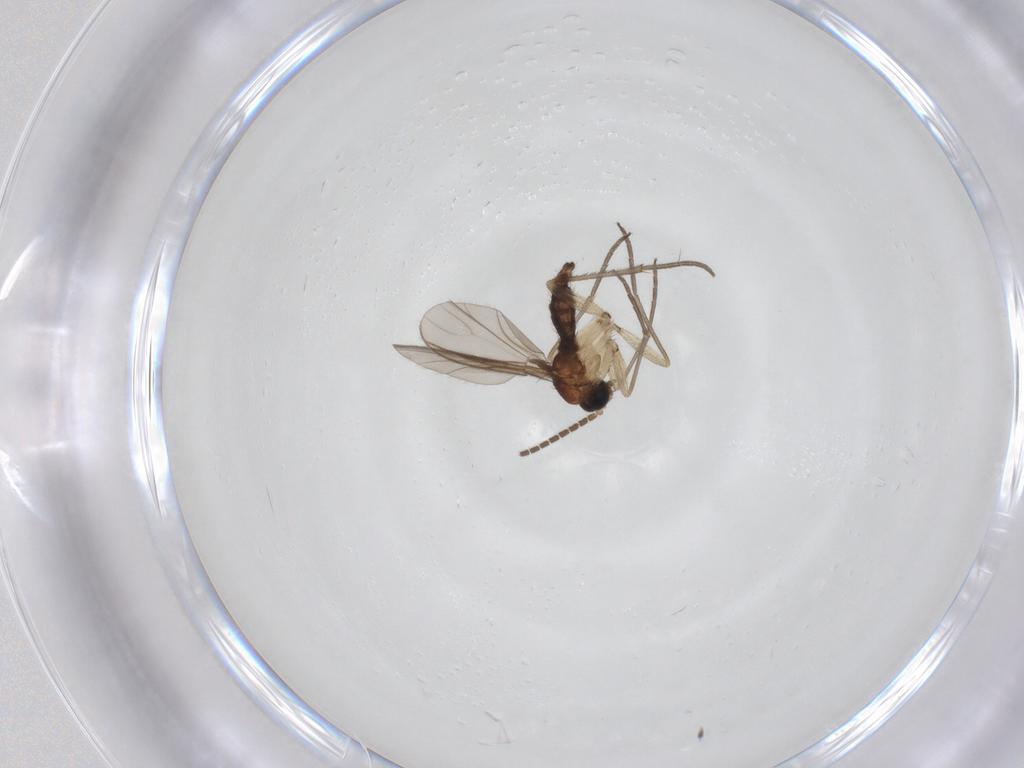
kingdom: Animalia
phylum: Arthropoda
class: Insecta
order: Diptera
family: Sciaridae
